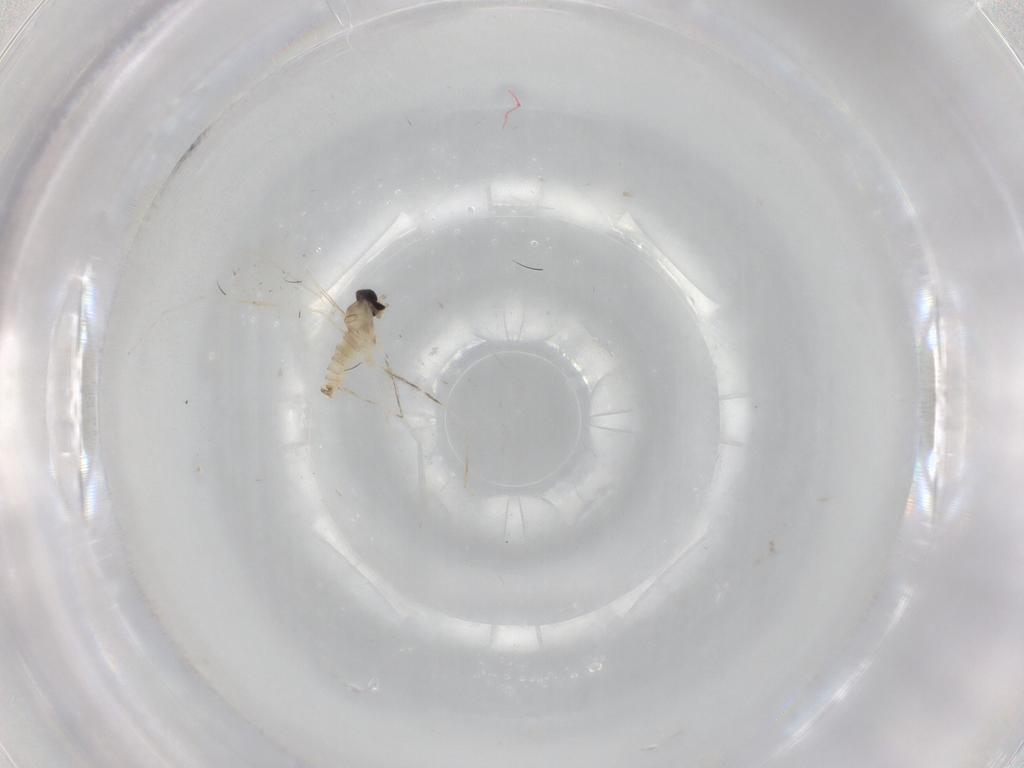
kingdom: Animalia
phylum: Arthropoda
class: Insecta
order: Diptera
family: Cecidomyiidae
